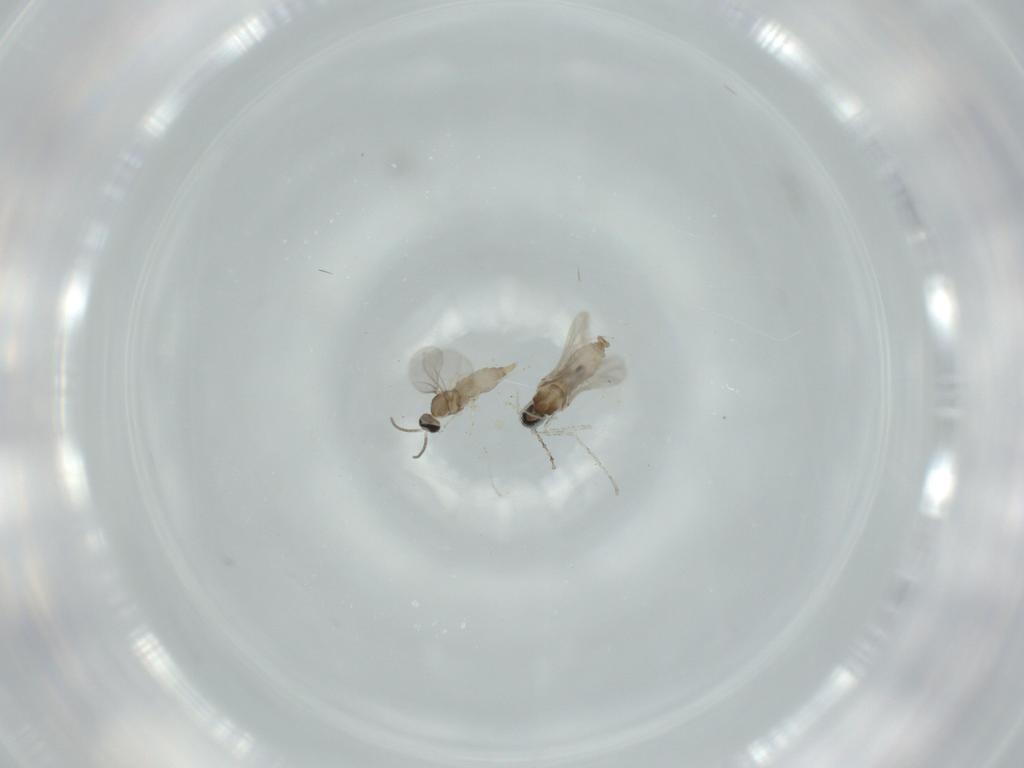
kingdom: Animalia
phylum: Arthropoda
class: Insecta
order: Diptera
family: Cecidomyiidae
